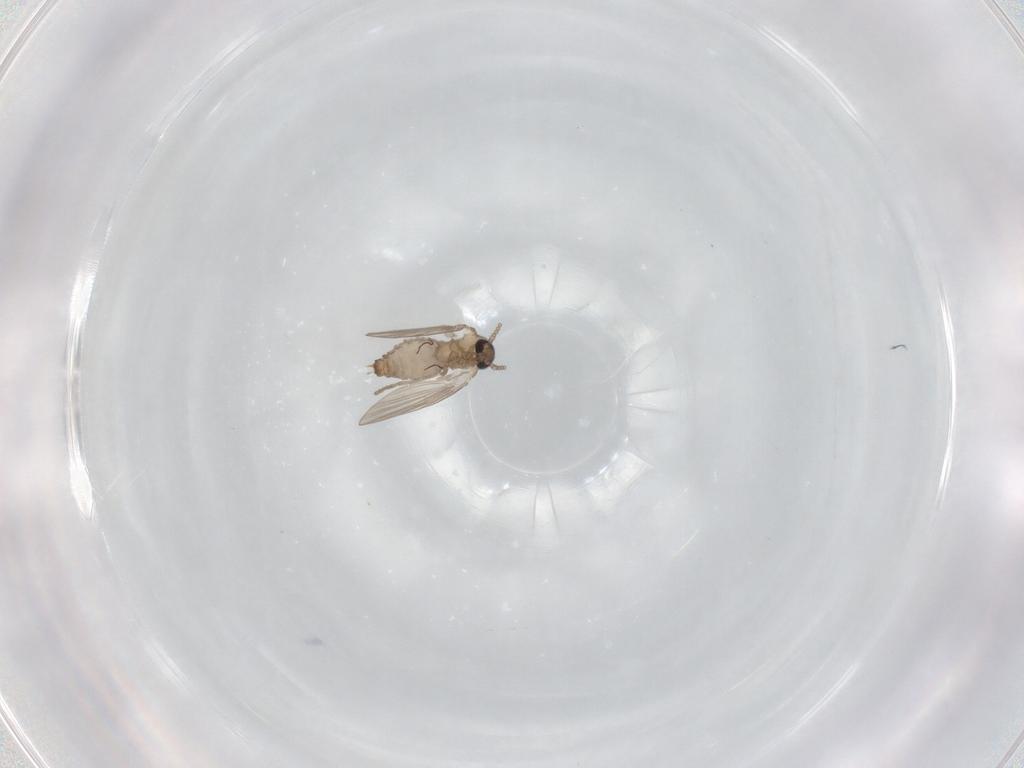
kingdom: Animalia
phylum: Arthropoda
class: Insecta
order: Diptera
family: Psychodidae
